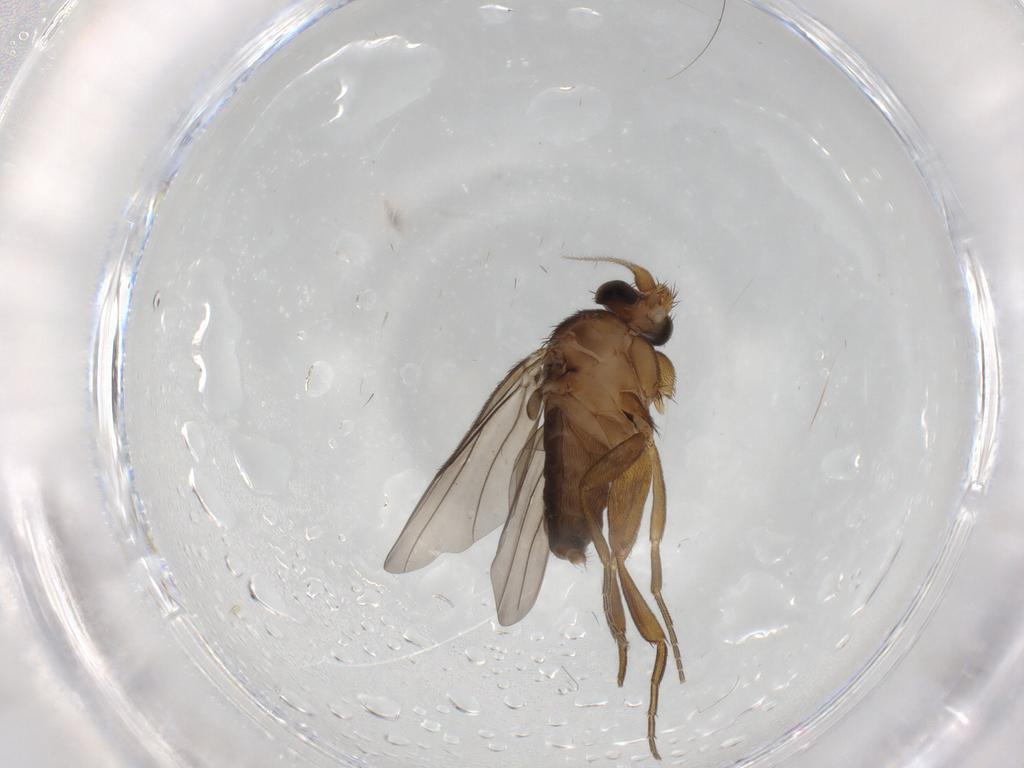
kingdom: Animalia
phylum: Arthropoda
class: Insecta
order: Diptera
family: Phoridae
